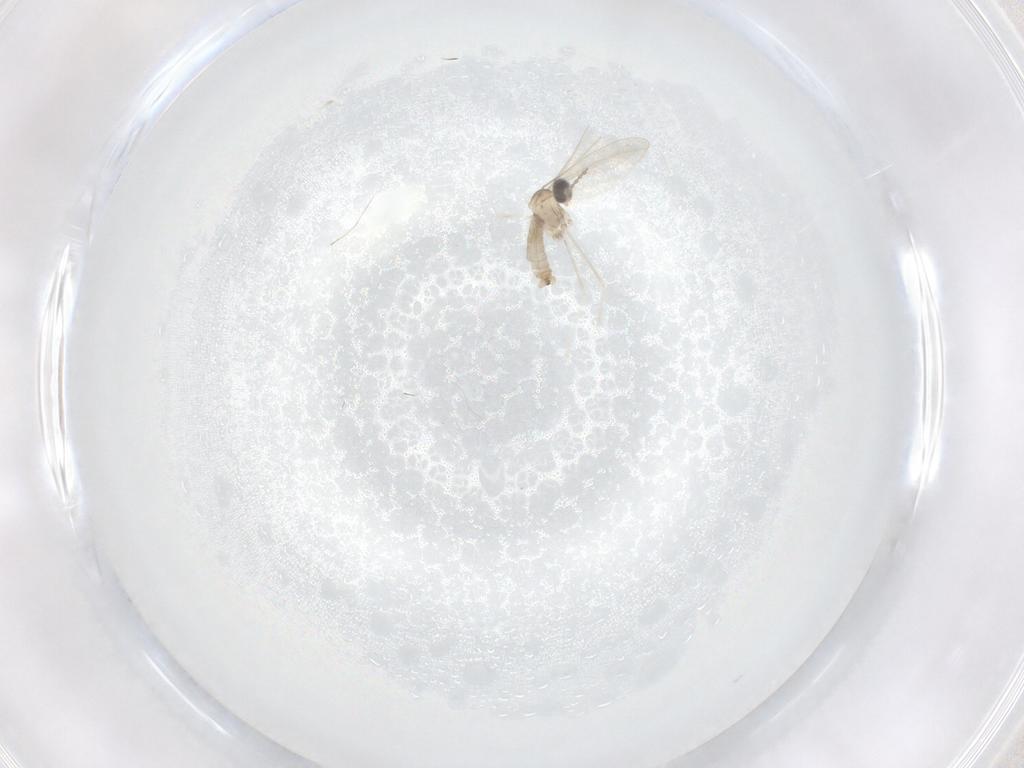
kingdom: Animalia
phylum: Arthropoda
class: Insecta
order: Diptera
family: Cecidomyiidae
